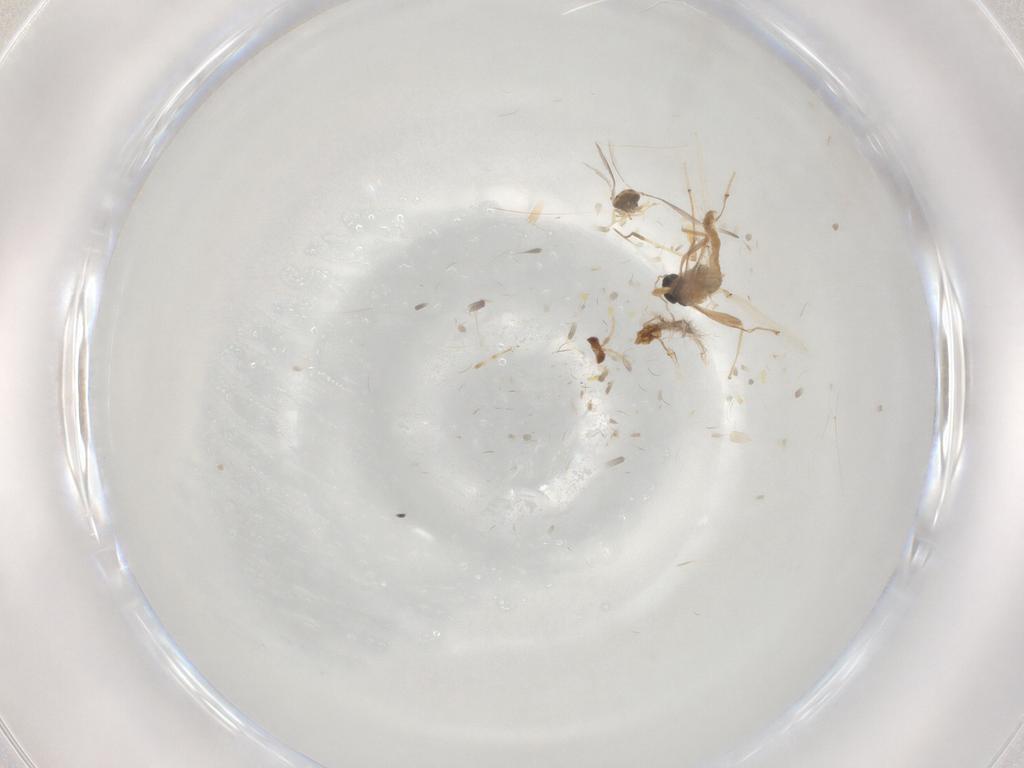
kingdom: Animalia
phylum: Arthropoda
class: Insecta
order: Diptera
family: Chironomidae
